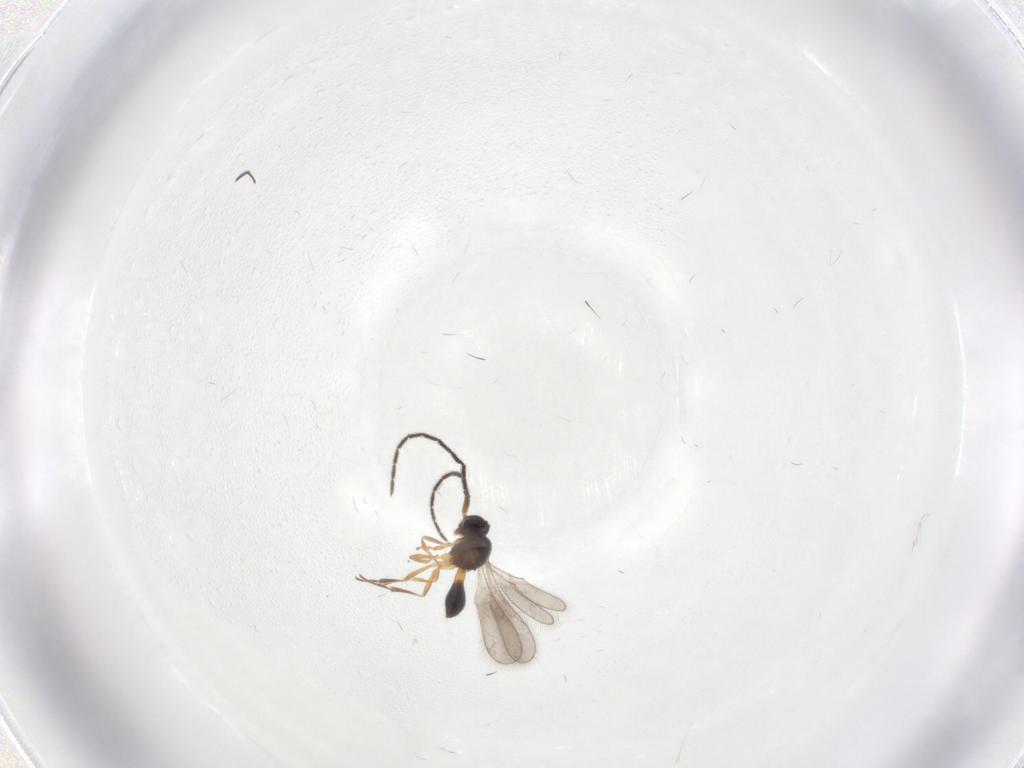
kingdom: Animalia
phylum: Arthropoda
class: Insecta
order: Hymenoptera
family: Scelionidae
